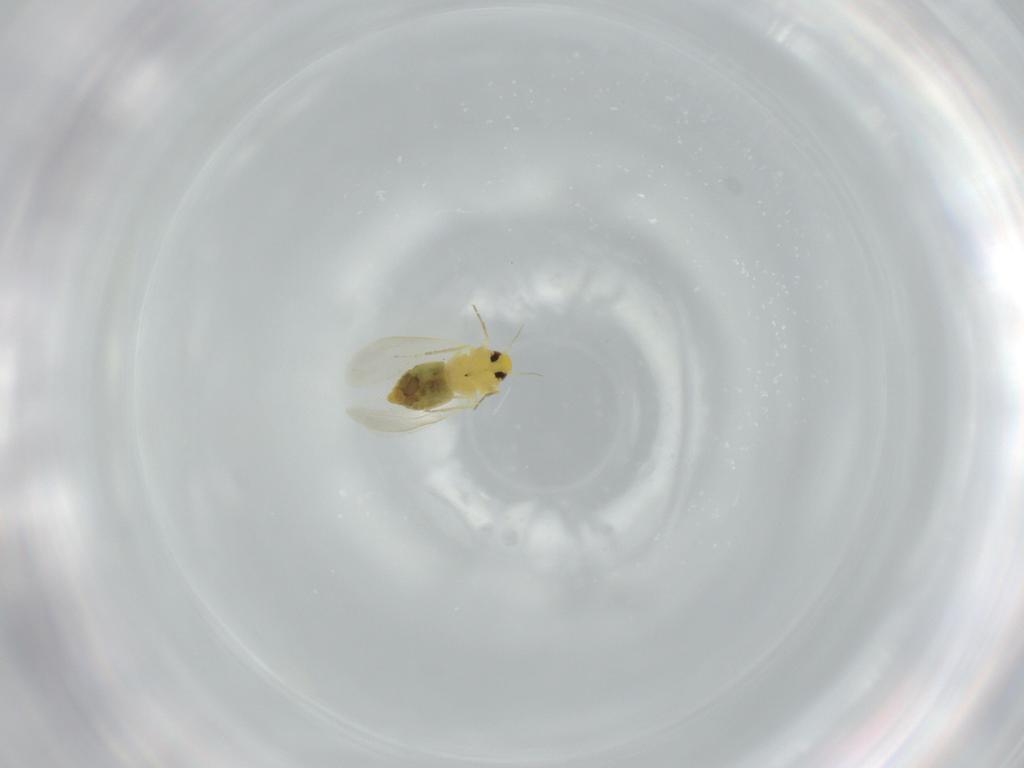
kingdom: Animalia
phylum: Arthropoda
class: Insecta
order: Hemiptera
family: Aleyrodidae
